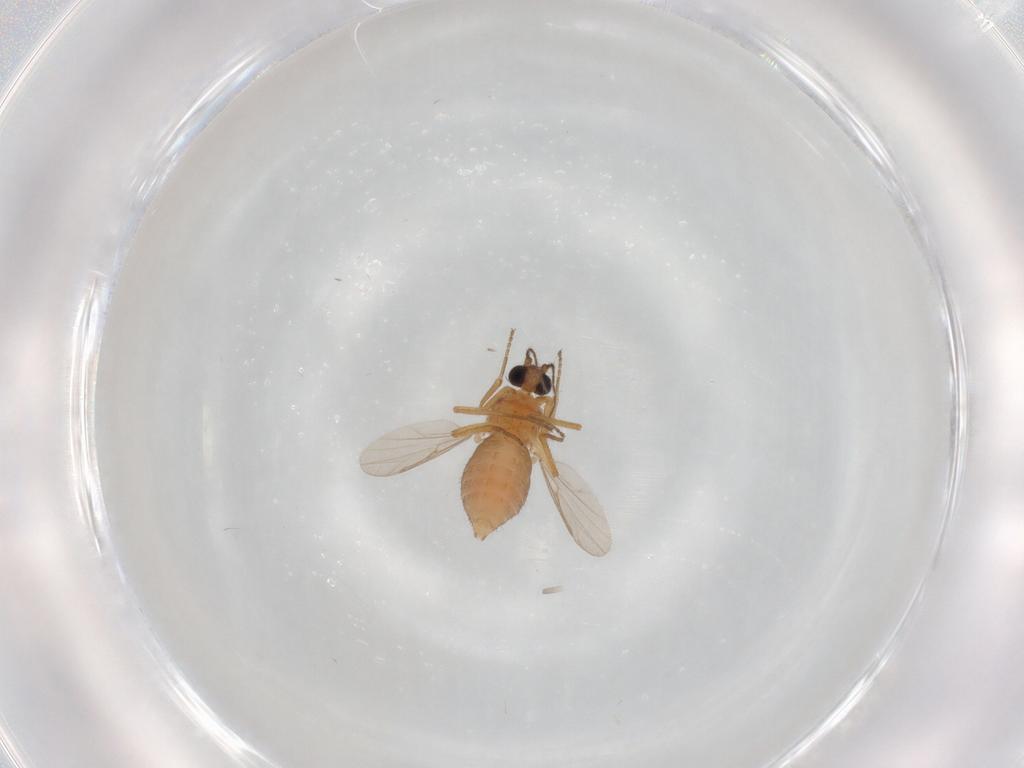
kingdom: Animalia
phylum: Arthropoda
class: Insecta
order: Diptera
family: Ceratopogonidae
